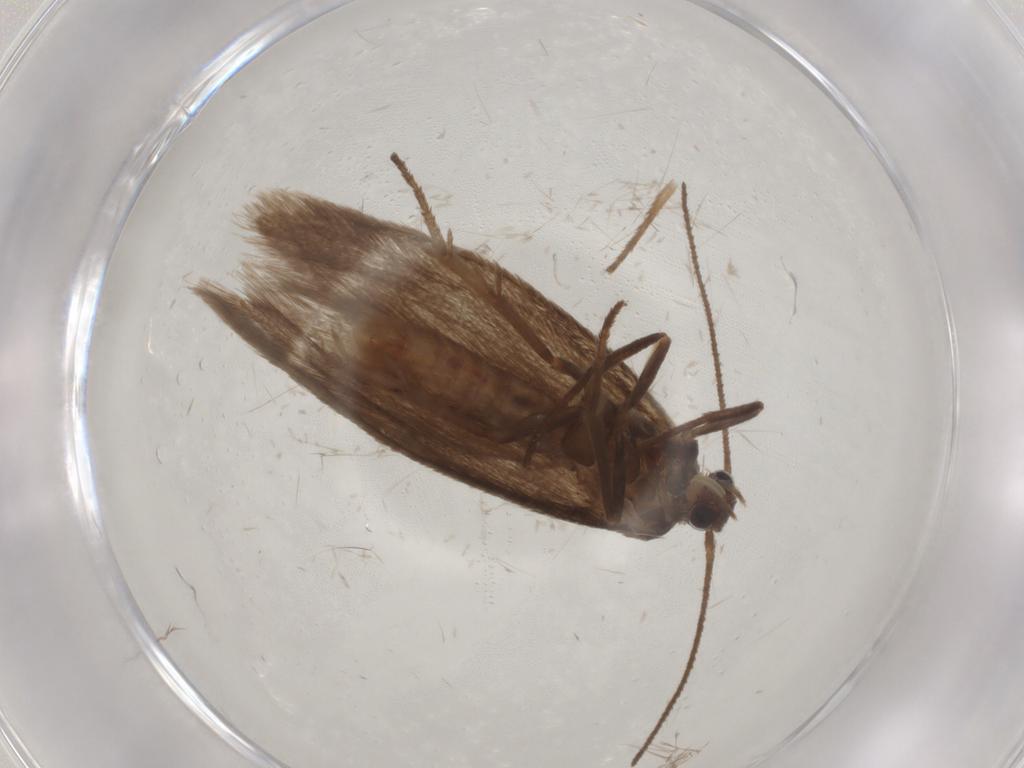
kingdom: Animalia
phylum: Arthropoda
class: Insecta
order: Lepidoptera
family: Limacodidae
